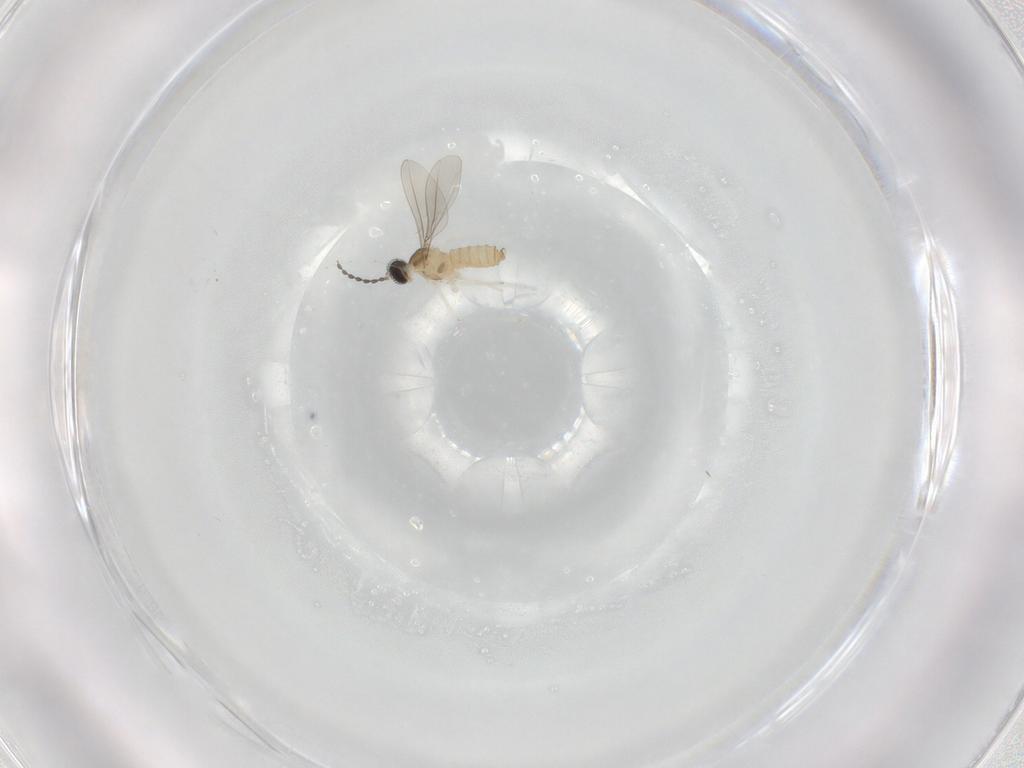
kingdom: Animalia
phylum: Arthropoda
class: Insecta
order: Diptera
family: Cecidomyiidae
